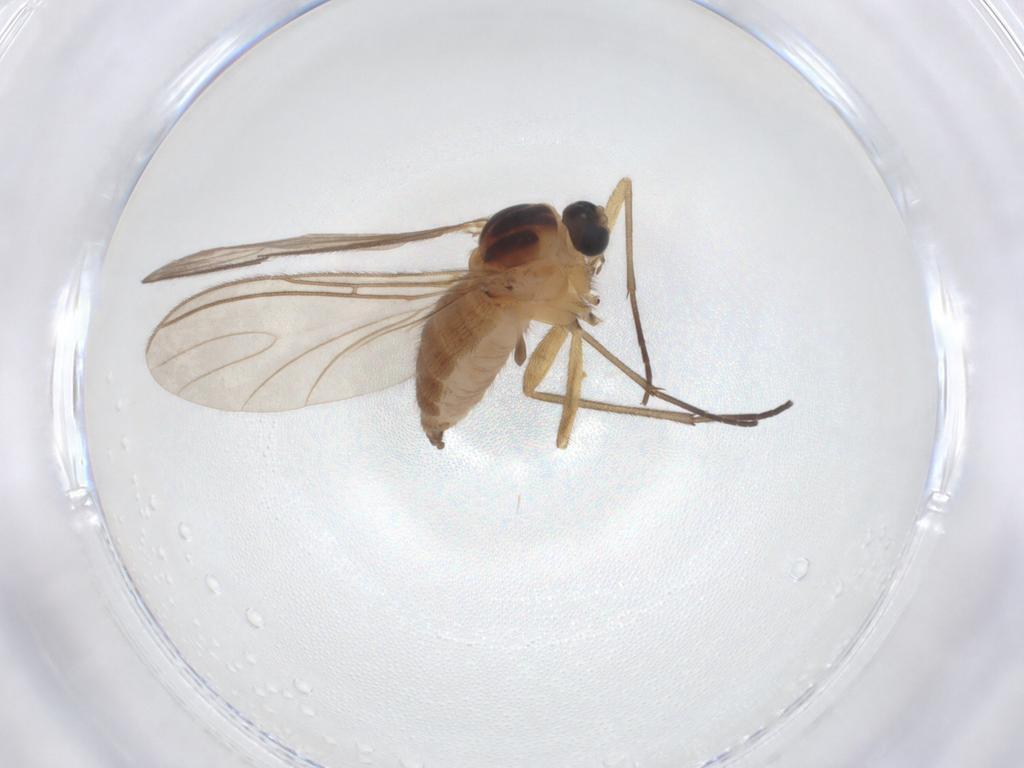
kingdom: Animalia
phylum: Arthropoda
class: Insecta
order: Diptera
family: Sciaridae
